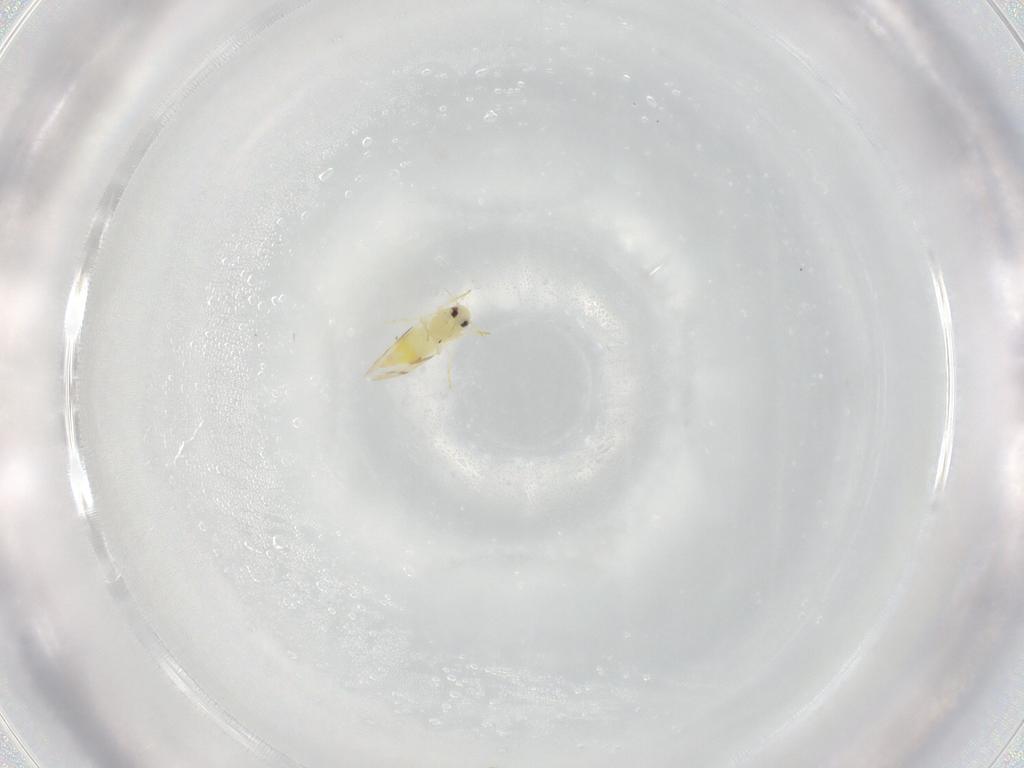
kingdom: Animalia
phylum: Arthropoda
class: Insecta
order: Hemiptera
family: Aleyrodidae
